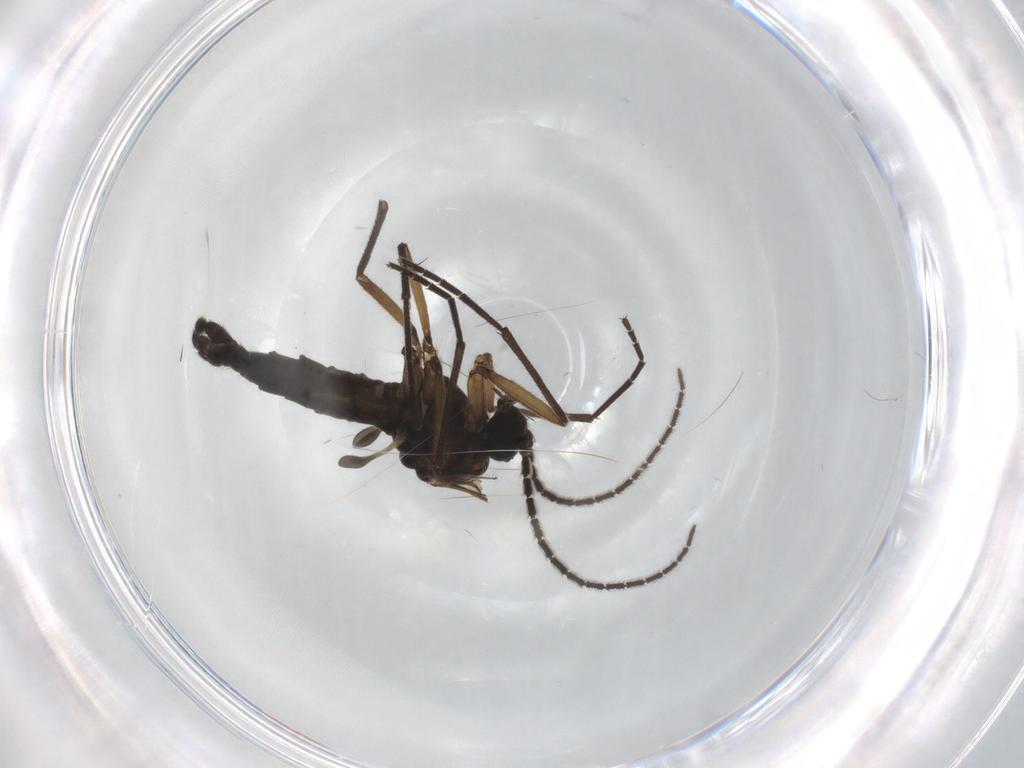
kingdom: Animalia
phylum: Arthropoda
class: Insecta
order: Diptera
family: Sciaridae
